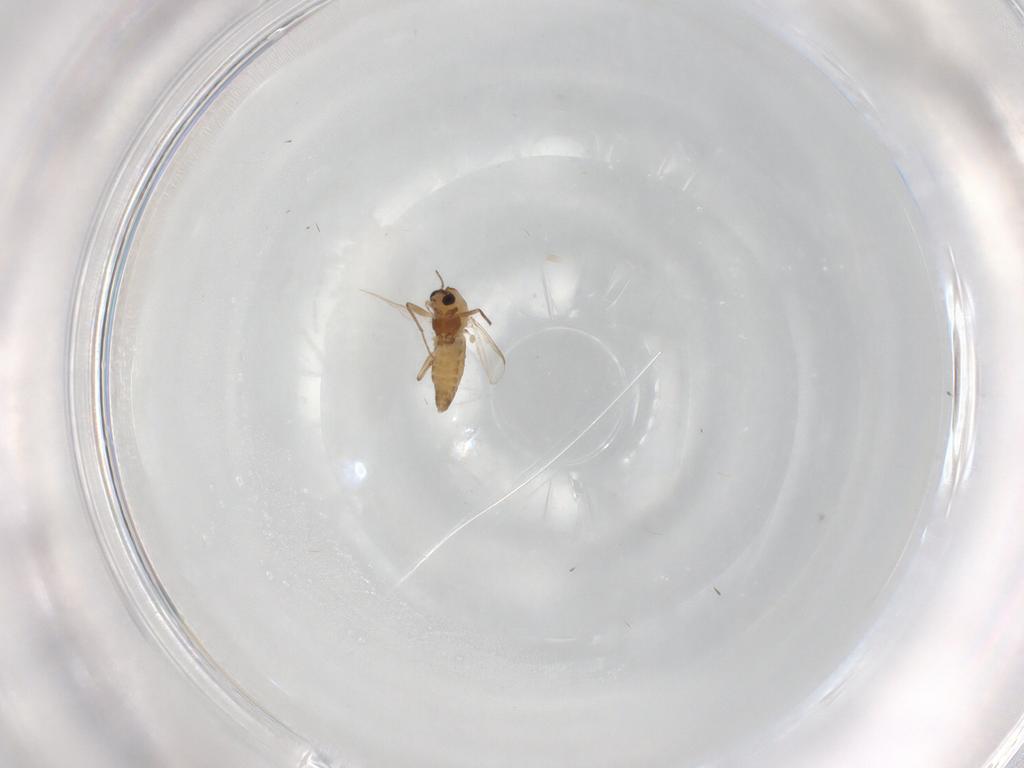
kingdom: Animalia
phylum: Arthropoda
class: Insecta
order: Diptera
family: Chironomidae
